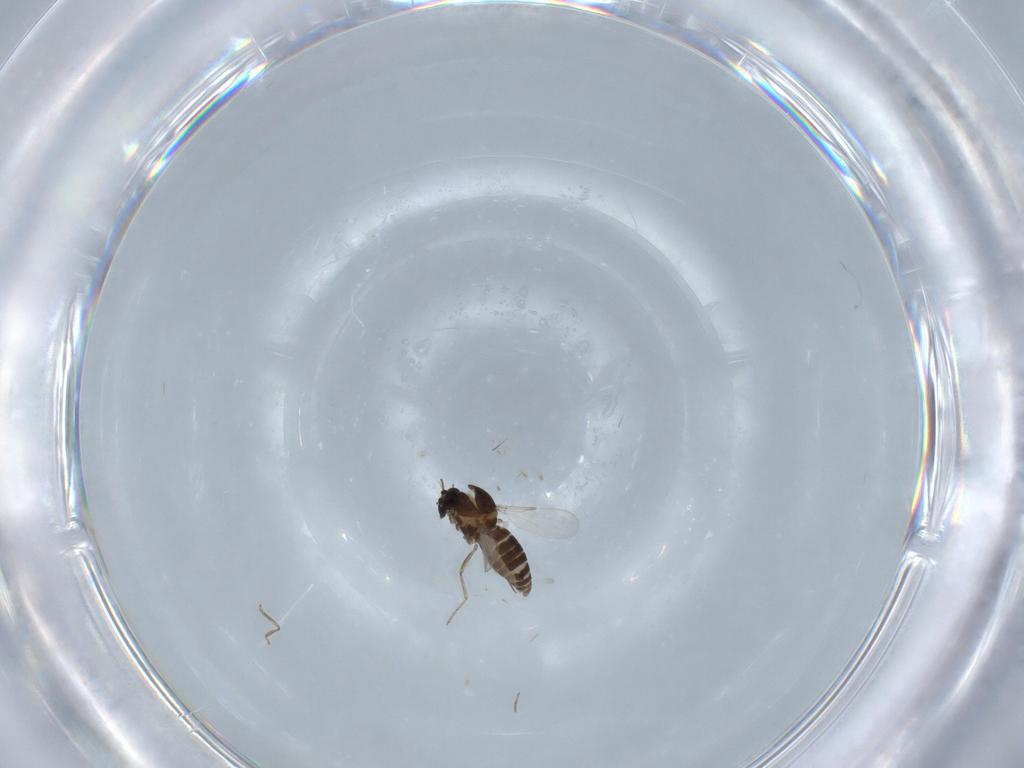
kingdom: Animalia
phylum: Arthropoda
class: Insecta
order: Diptera
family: Ceratopogonidae
